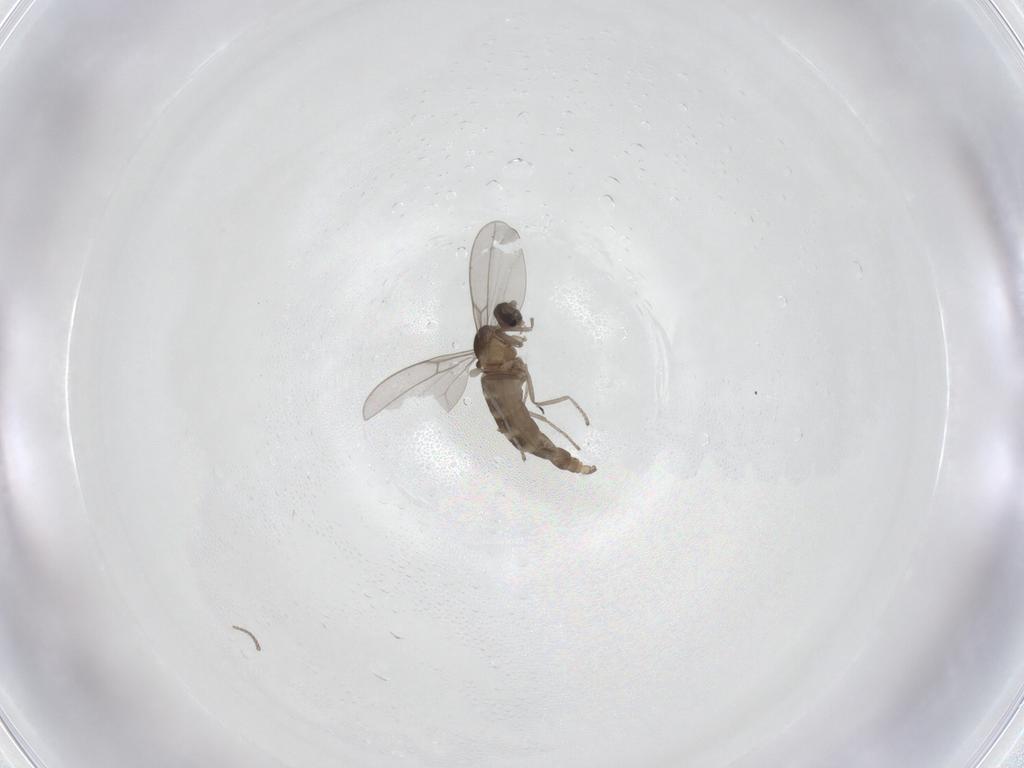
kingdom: Animalia
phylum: Arthropoda
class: Insecta
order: Diptera
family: Cecidomyiidae
